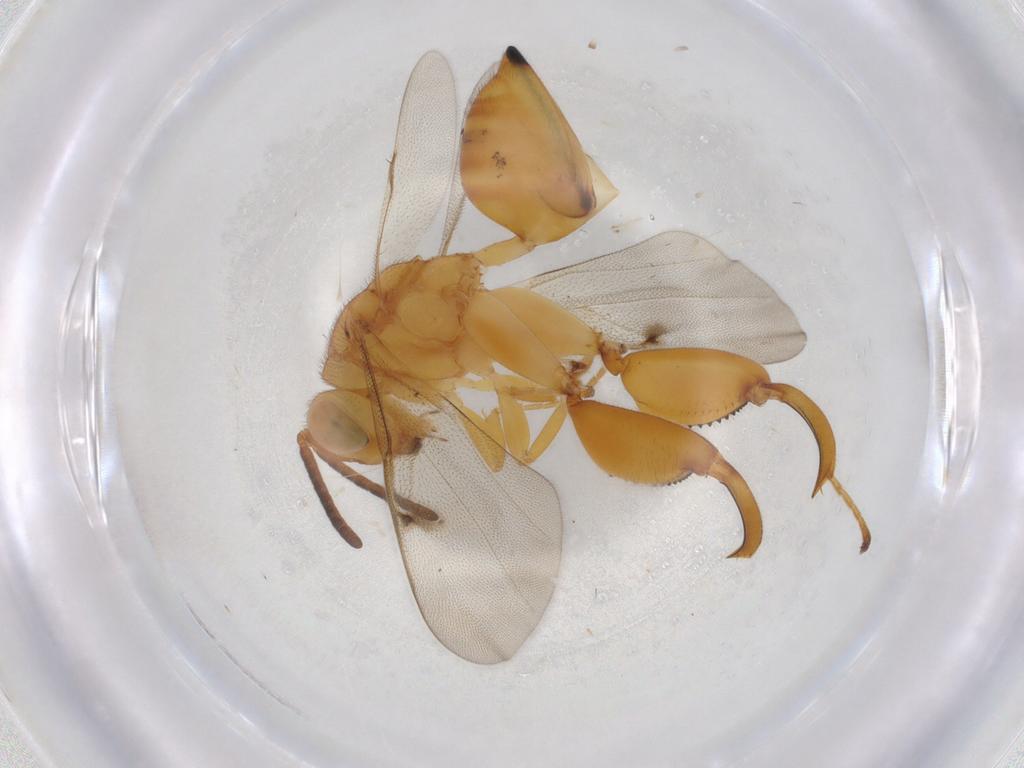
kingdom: Animalia
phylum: Arthropoda
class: Insecta
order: Hymenoptera
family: Chalcididae
